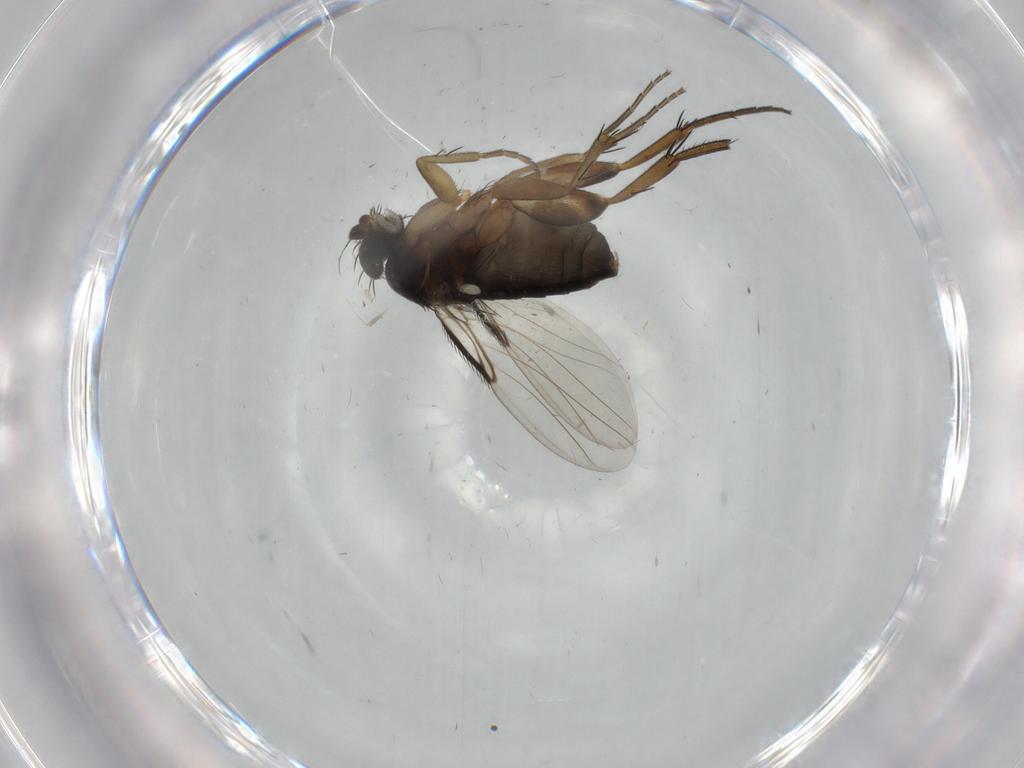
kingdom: Animalia
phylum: Arthropoda
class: Insecta
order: Diptera
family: Phoridae
